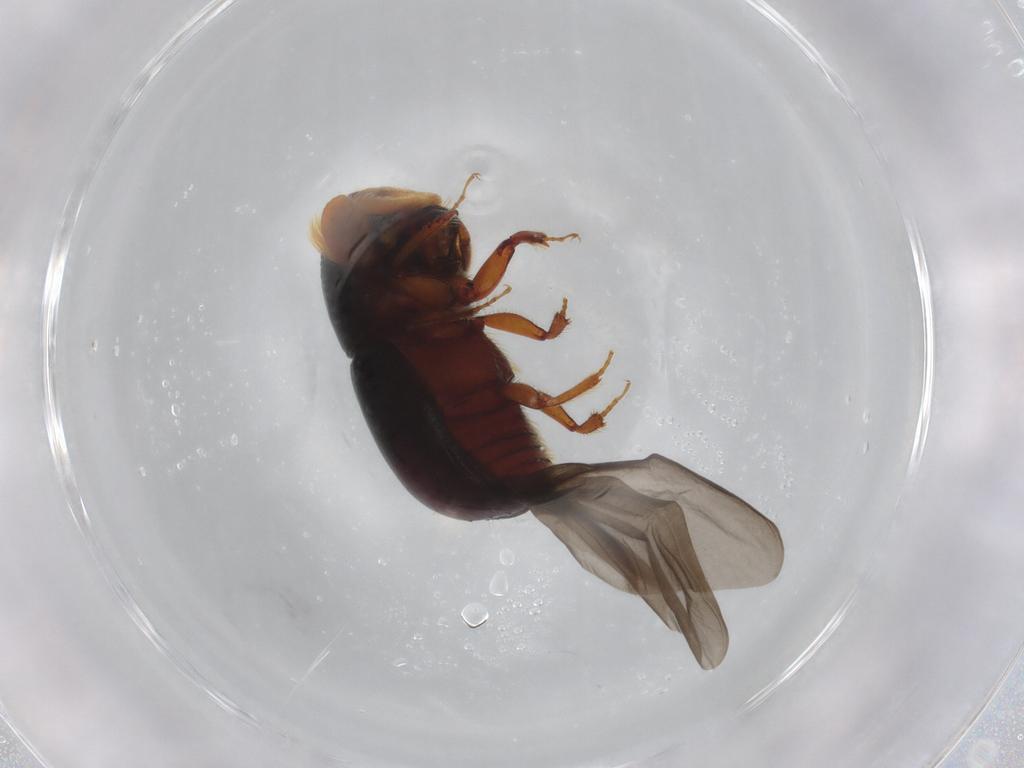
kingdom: Animalia
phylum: Arthropoda
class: Insecta
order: Coleoptera
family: Curculionidae
